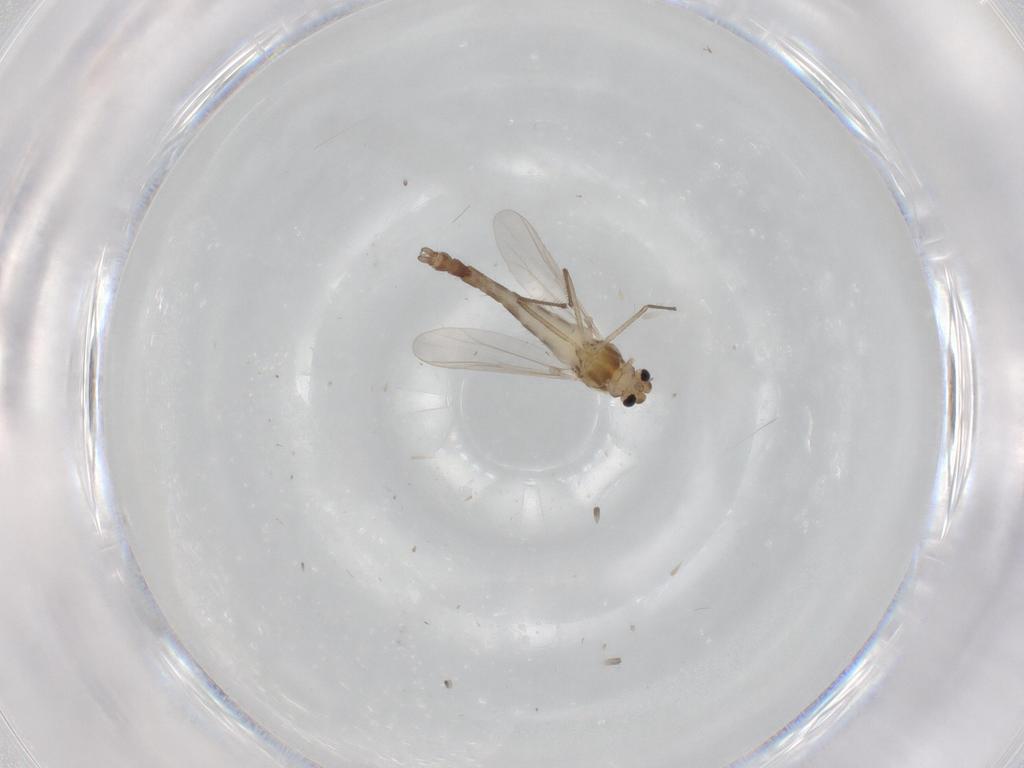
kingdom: Animalia
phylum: Arthropoda
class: Insecta
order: Diptera
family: Chironomidae
